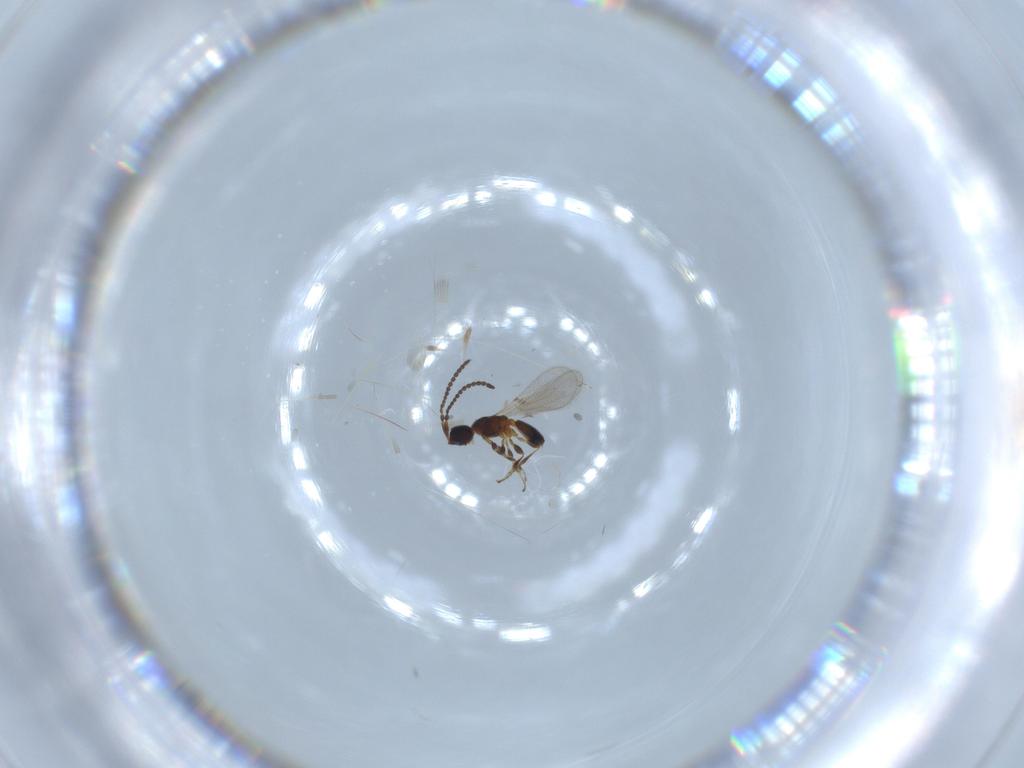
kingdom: Animalia
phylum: Arthropoda
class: Insecta
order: Hymenoptera
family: Diapriidae
